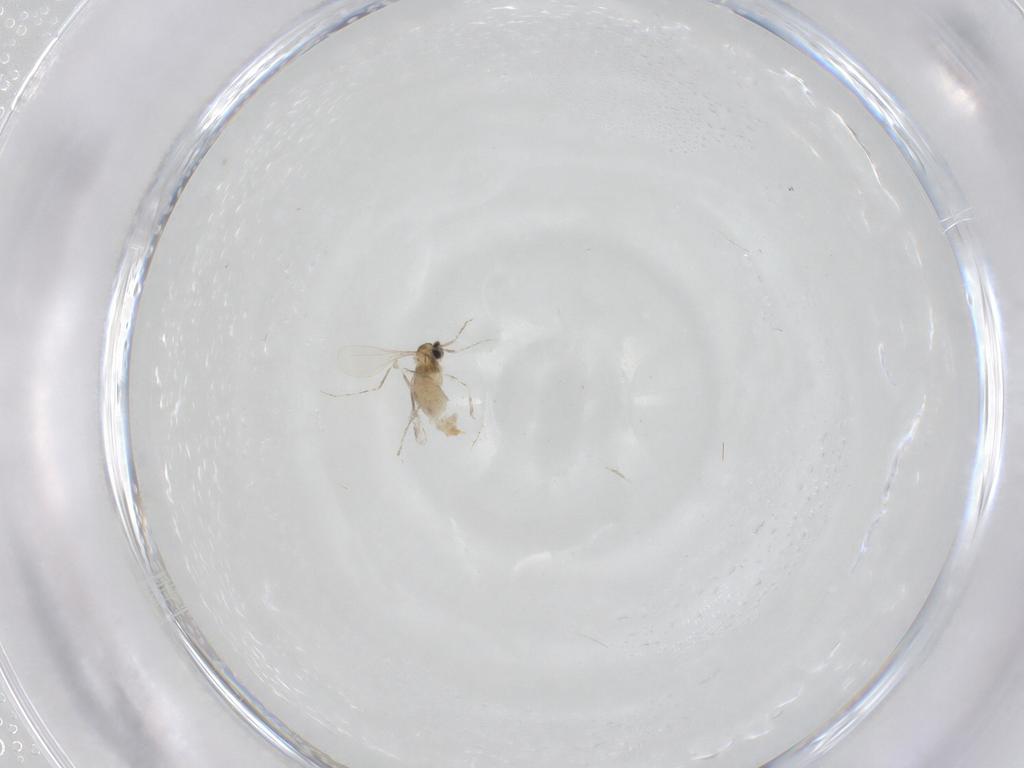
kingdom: Animalia
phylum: Arthropoda
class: Insecta
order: Diptera
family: Cecidomyiidae
